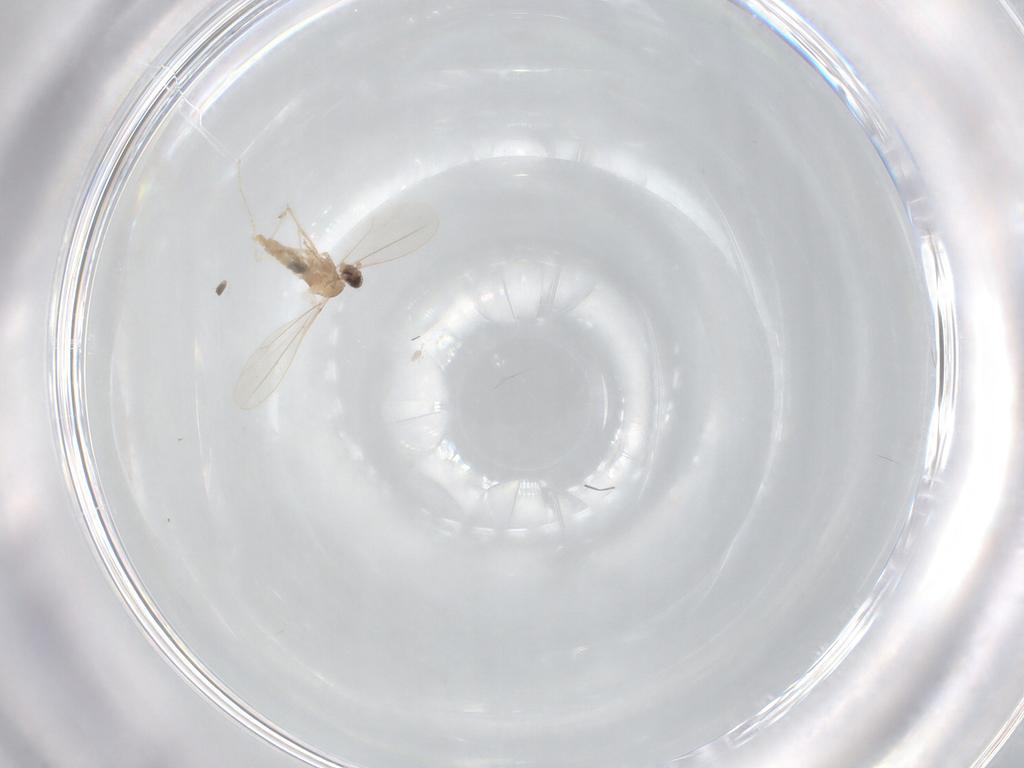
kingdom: Animalia
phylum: Arthropoda
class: Insecta
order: Diptera
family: Cecidomyiidae
